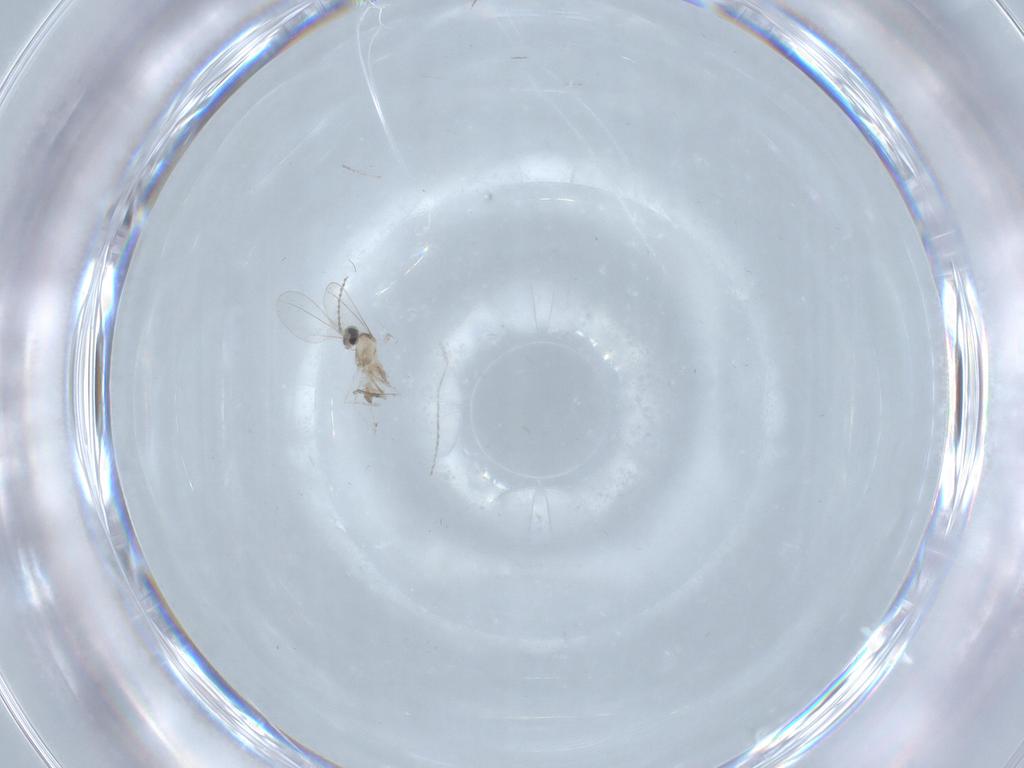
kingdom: Animalia
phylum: Arthropoda
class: Insecta
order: Diptera
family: Cecidomyiidae
